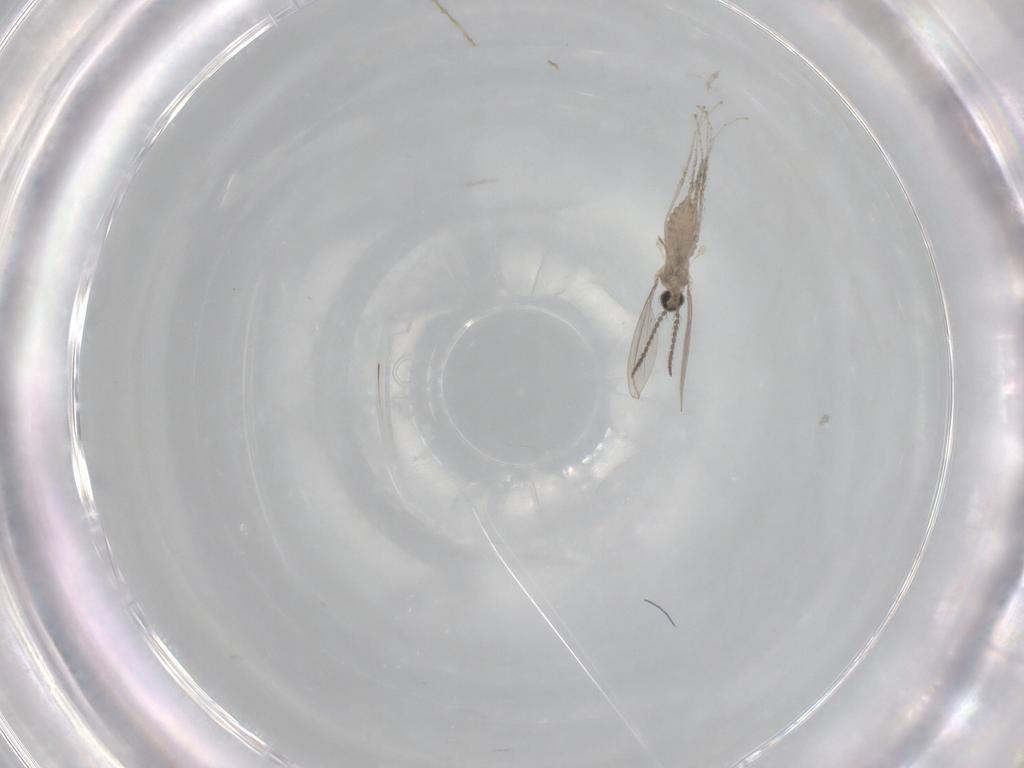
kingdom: Animalia
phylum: Arthropoda
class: Insecta
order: Diptera
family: Cecidomyiidae
